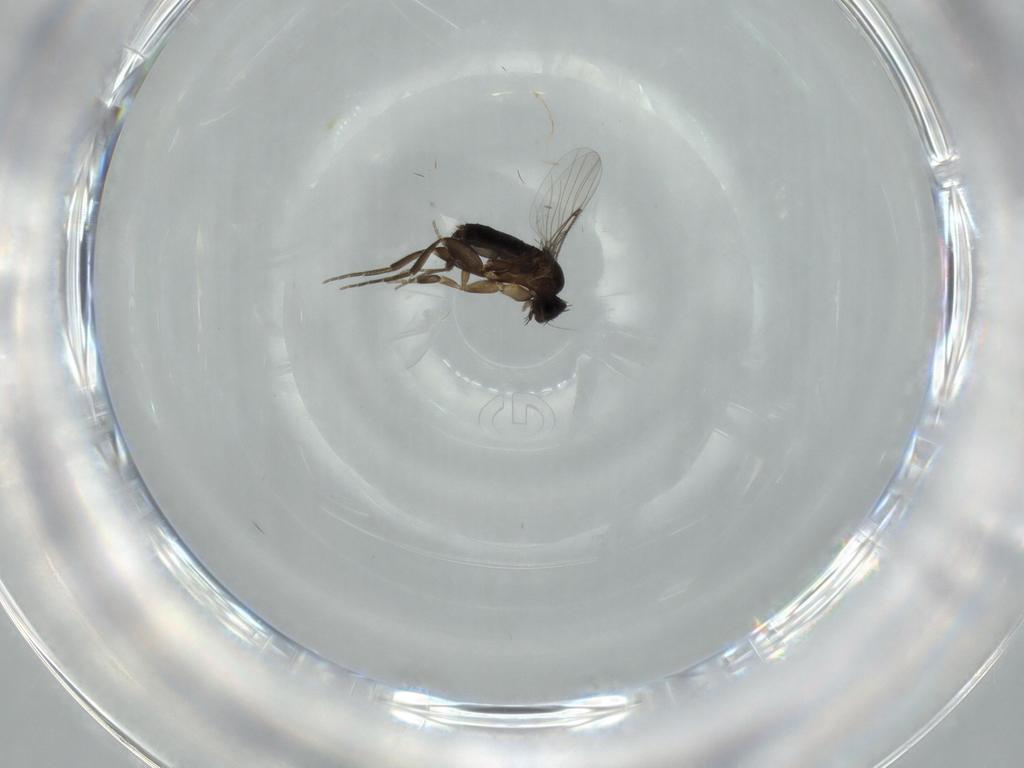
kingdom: Animalia
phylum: Arthropoda
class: Insecta
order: Diptera
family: Phoridae
